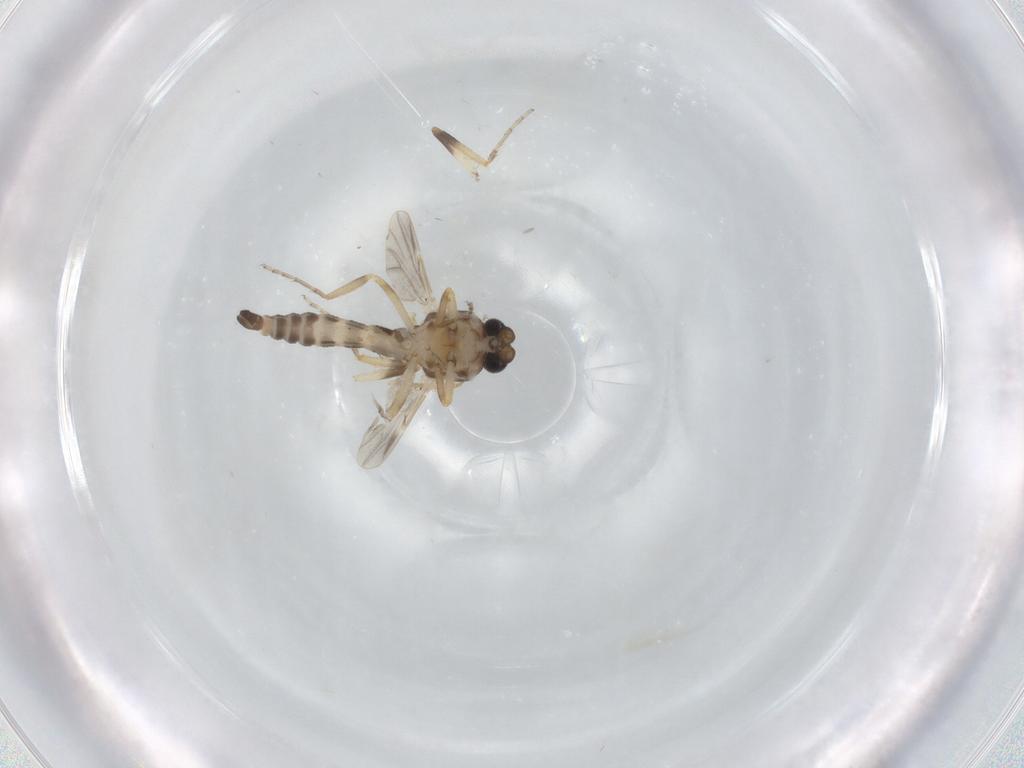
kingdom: Animalia
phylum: Arthropoda
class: Insecta
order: Diptera
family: Ceratopogonidae
